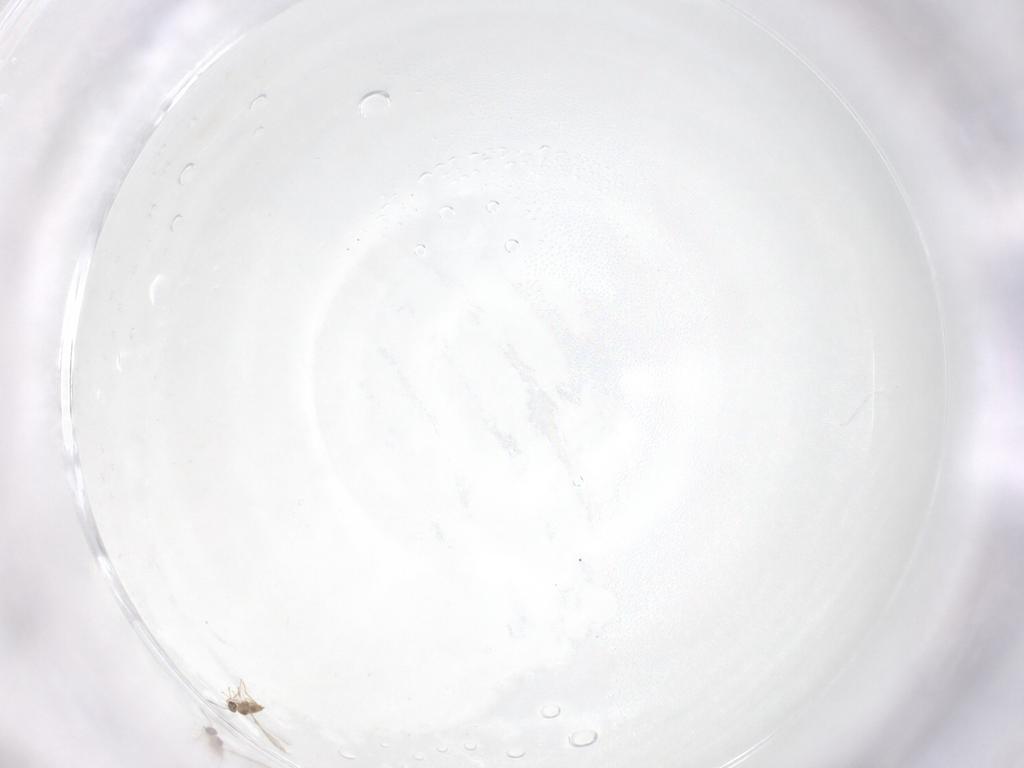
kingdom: Animalia
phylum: Arthropoda
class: Insecta
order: Hymenoptera
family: Mymaridae
